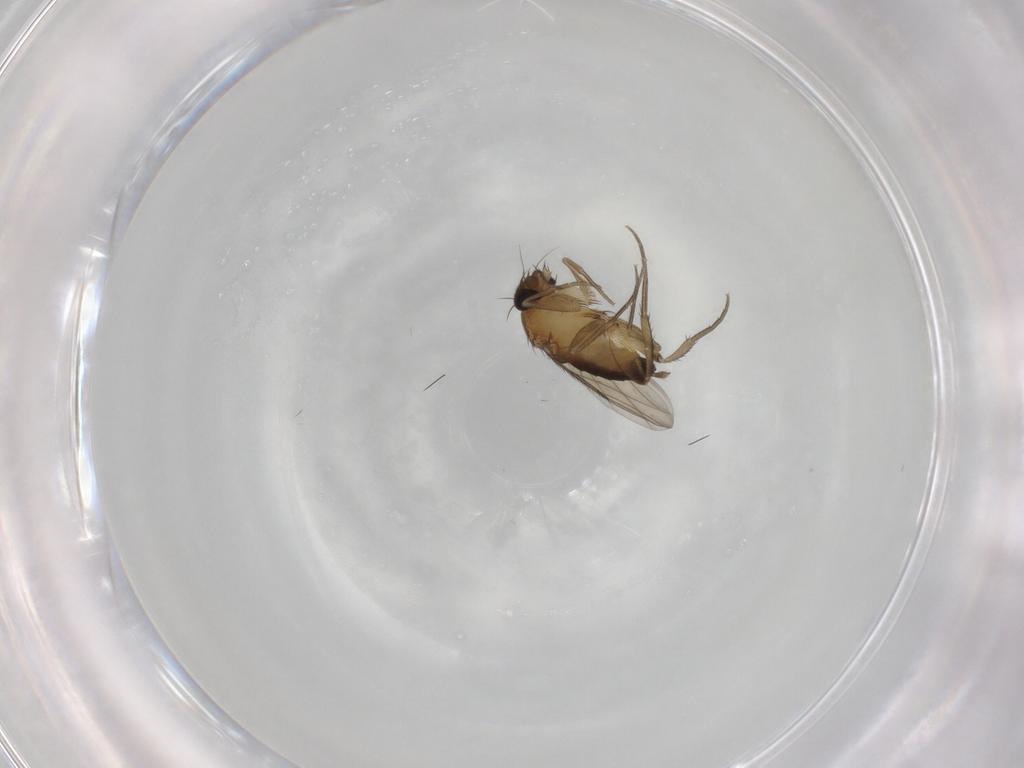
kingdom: Animalia
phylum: Arthropoda
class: Insecta
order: Diptera
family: Phoridae
